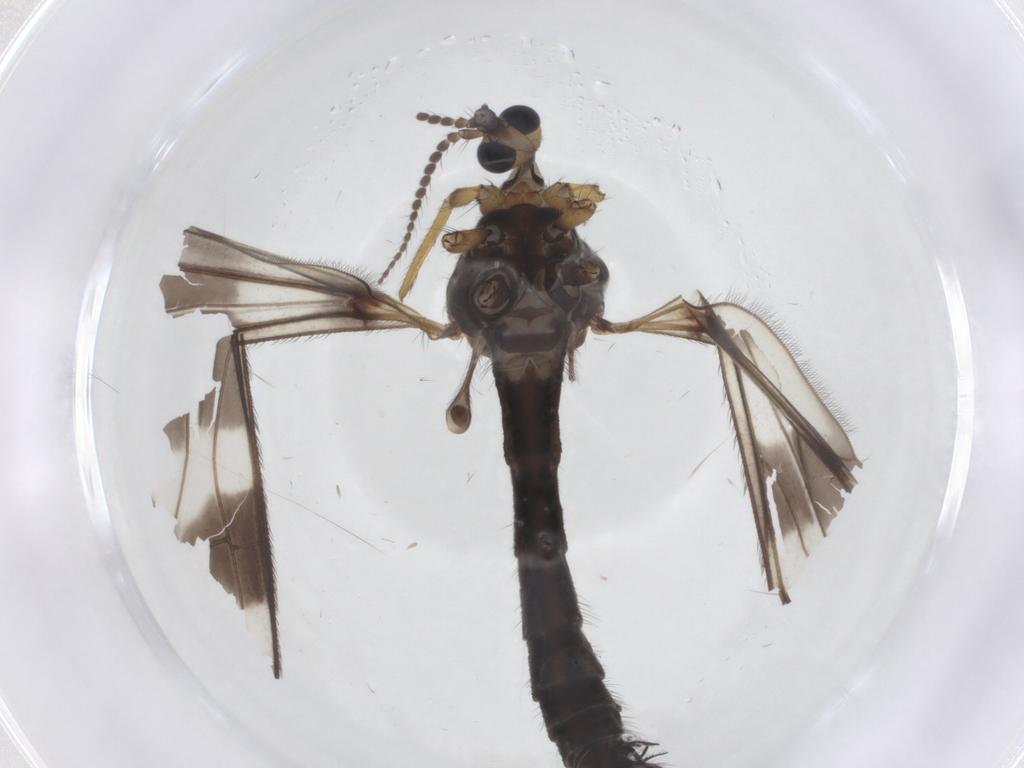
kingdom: Animalia
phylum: Arthropoda
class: Insecta
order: Diptera
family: Limoniidae
